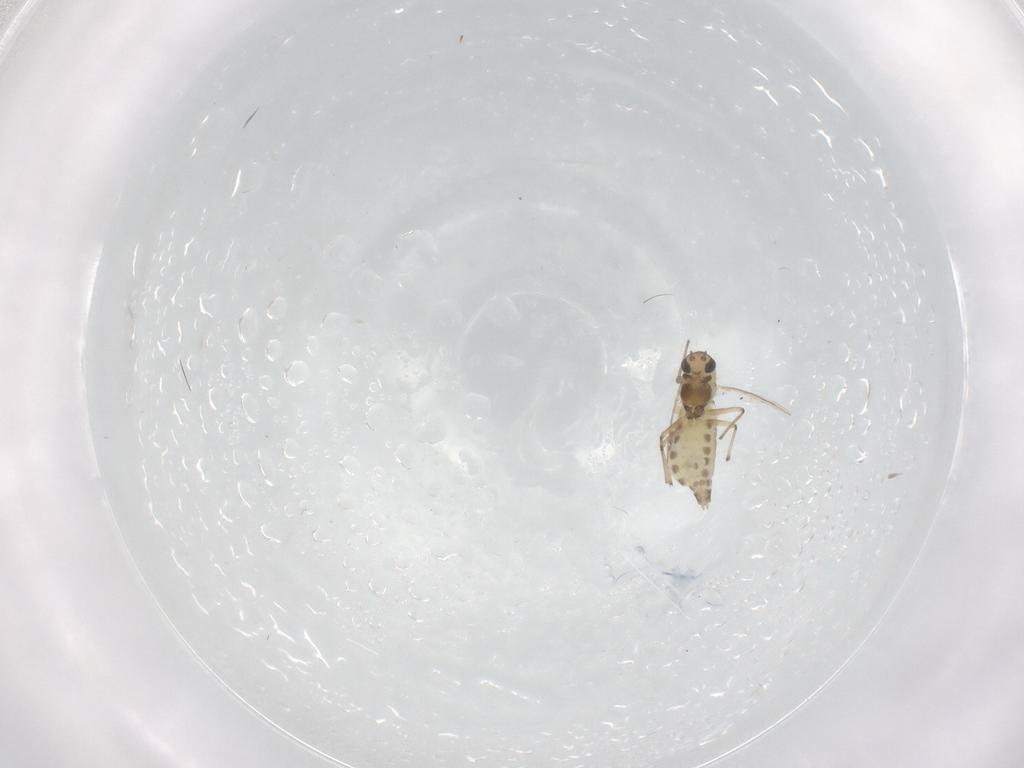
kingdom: Animalia
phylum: Arthropoda
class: Insecta
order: Diptera
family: Chironomidae
